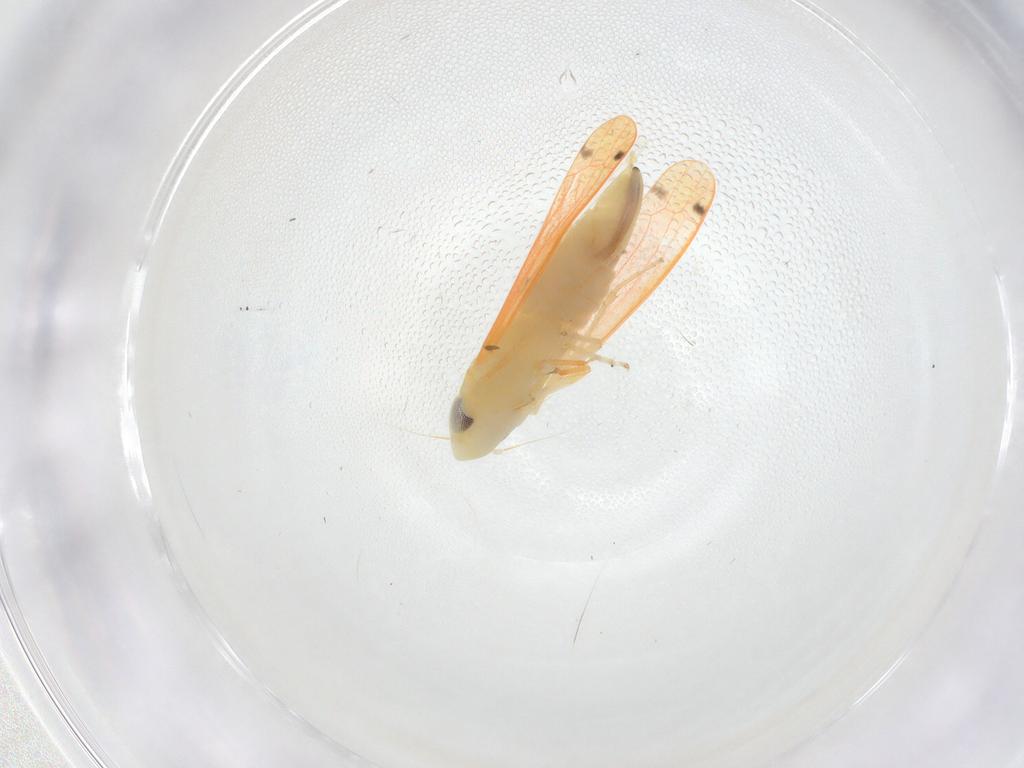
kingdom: Animalia
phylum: Arthropoda
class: Insecta
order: Hemiptera
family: Cicadellidae
